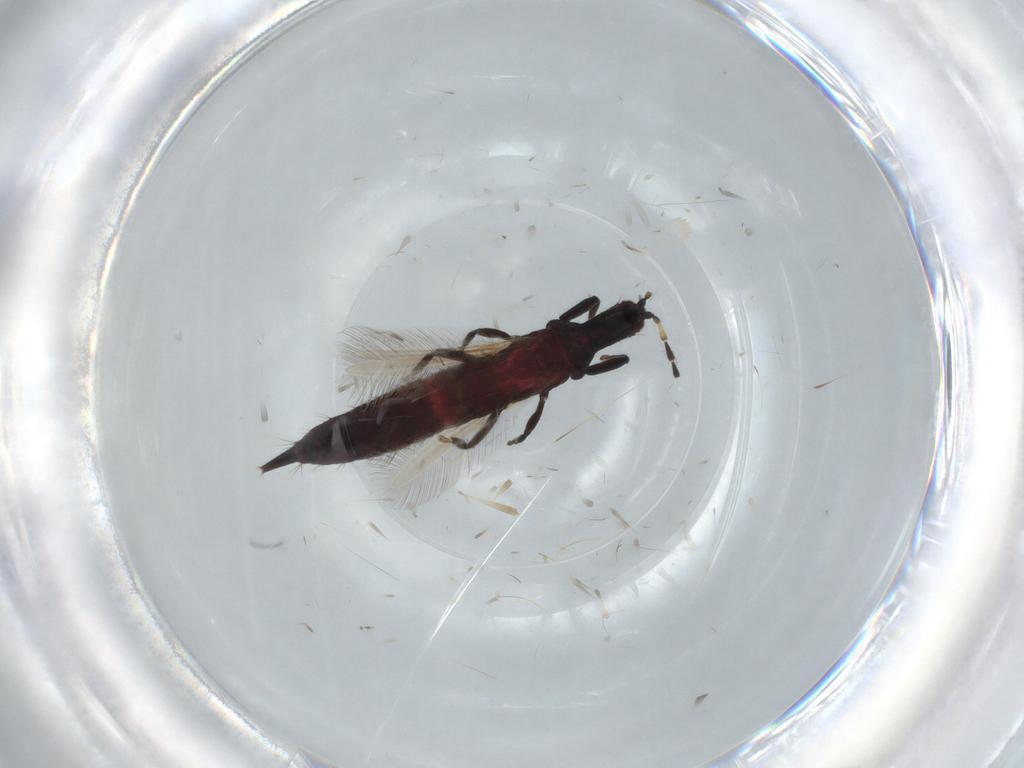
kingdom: Animalia
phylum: Arthropoda
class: Insecta
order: Thysanoptera
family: Phlaeothripidae
